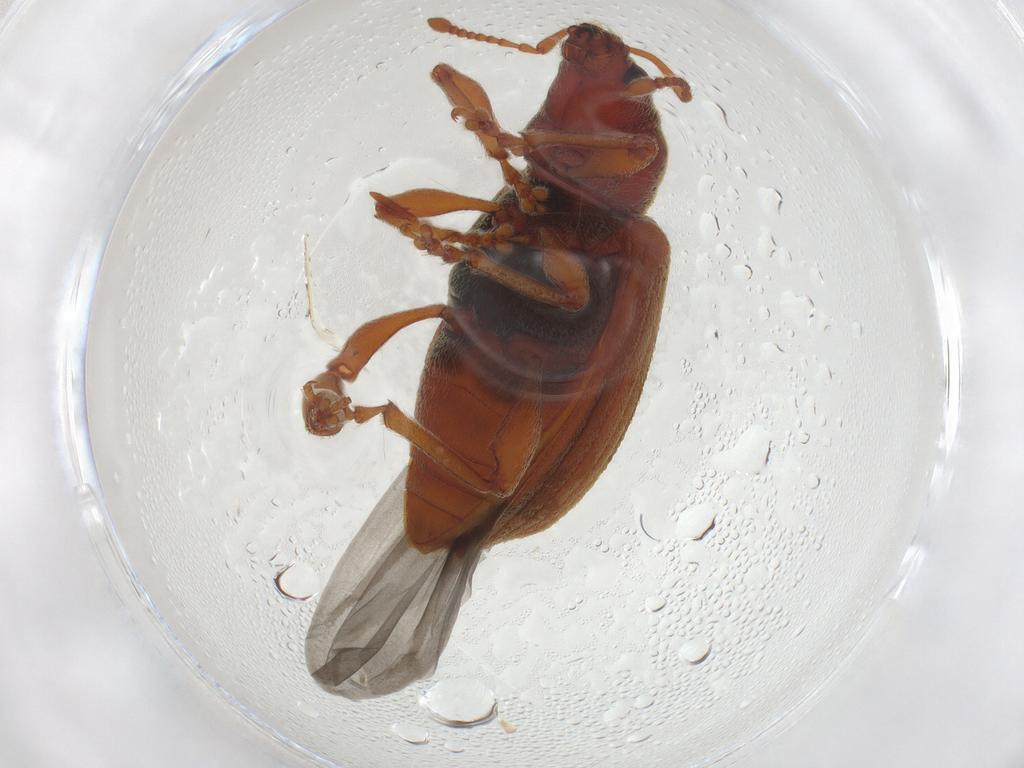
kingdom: Animalia
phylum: Arthropoda
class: Insecta
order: Coleoptera
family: Curculionidae
